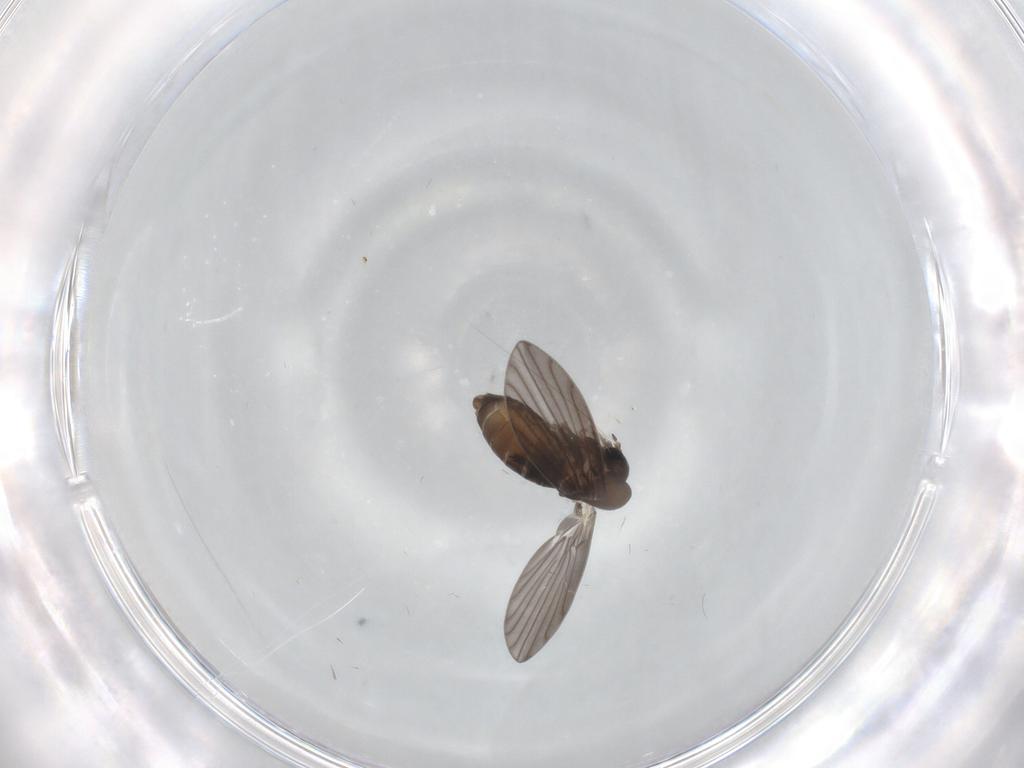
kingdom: Animalia
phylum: Arthropoda
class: Insecta
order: Diptera
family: Psychodidae
